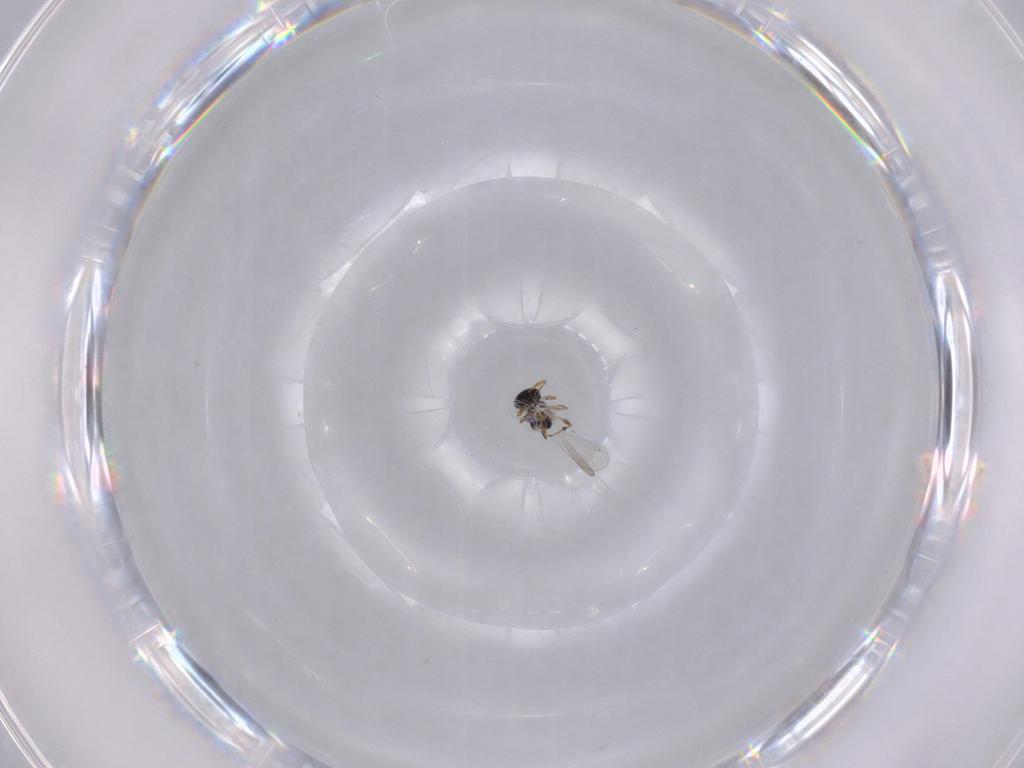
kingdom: Animalia
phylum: Arthropoda
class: Insecta
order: Hymenoptera
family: Platygastridae
